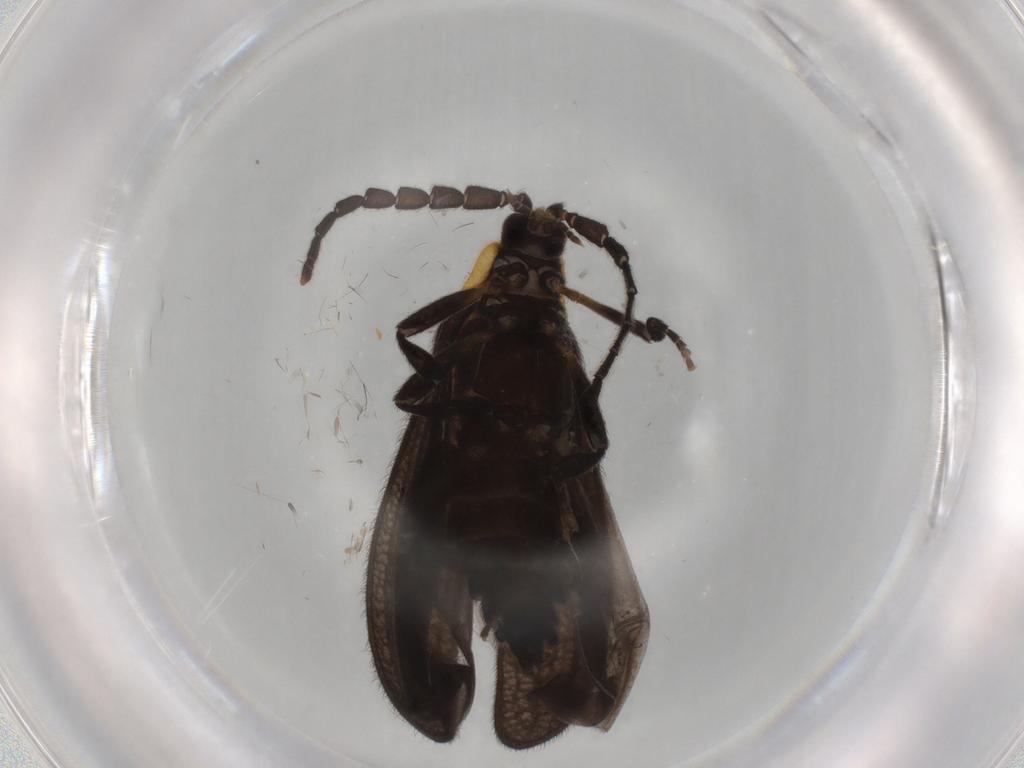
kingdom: Animalia
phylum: Arthropoda
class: Insecta
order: Coleoptera
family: Lycidae
